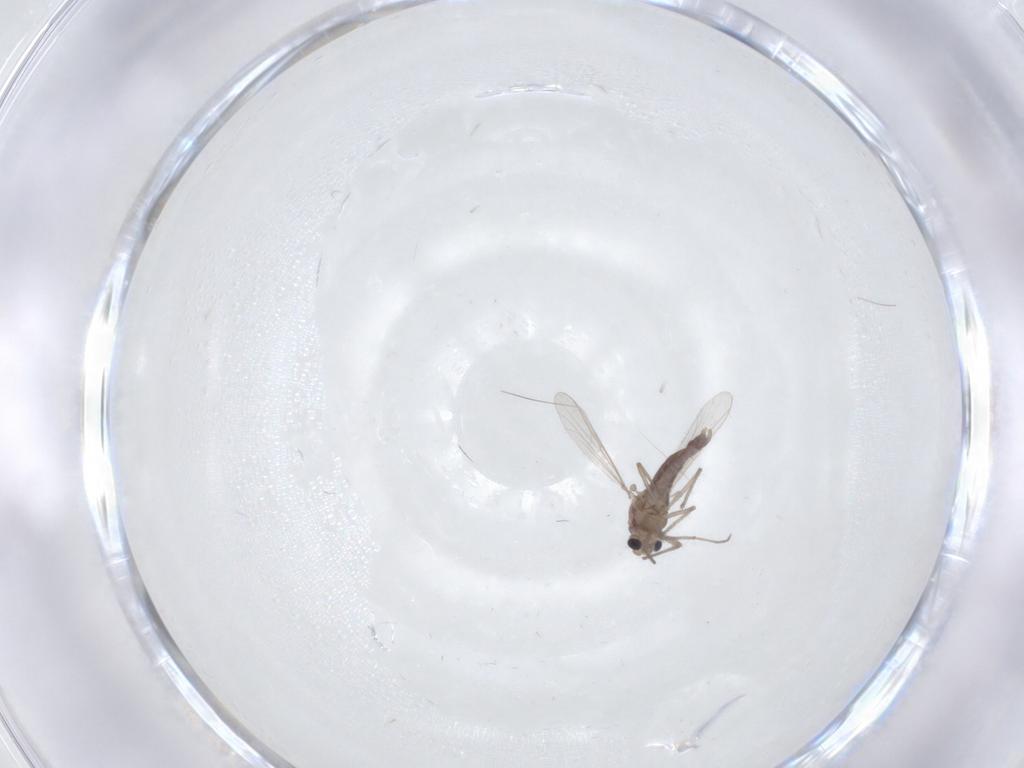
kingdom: Animalia
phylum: Arthropoda
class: Insecta
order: Diptera
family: Chironomidae
